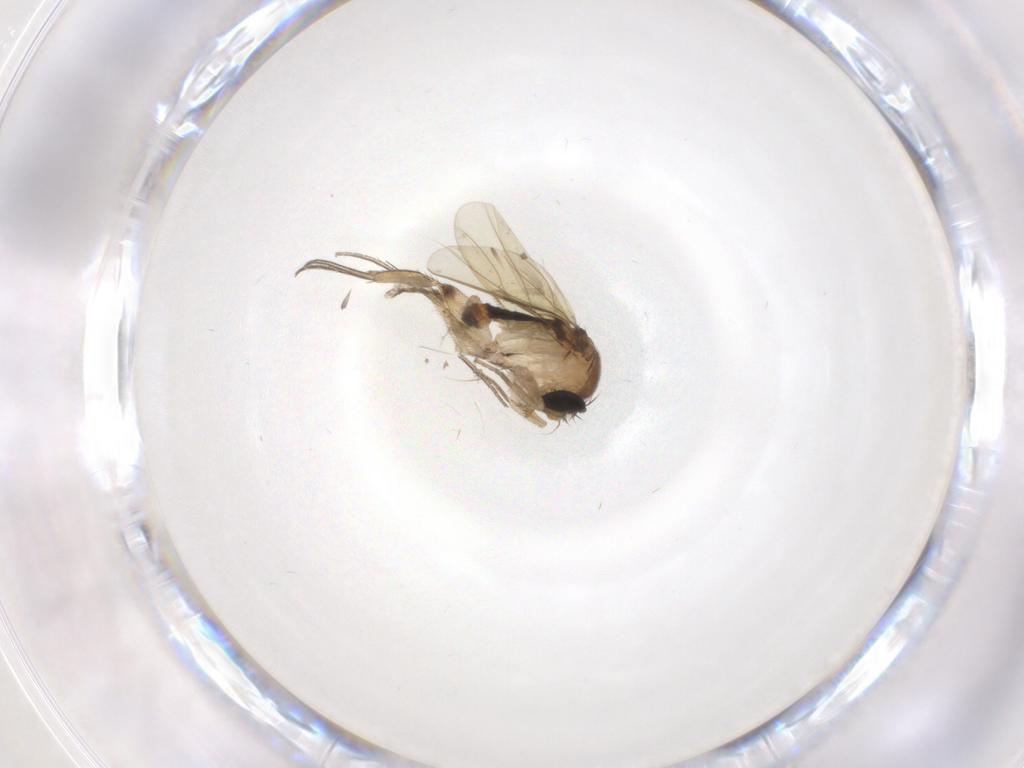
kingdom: Animalia
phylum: Arthropoda
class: Insecta
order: Diptera
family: Phoridae
